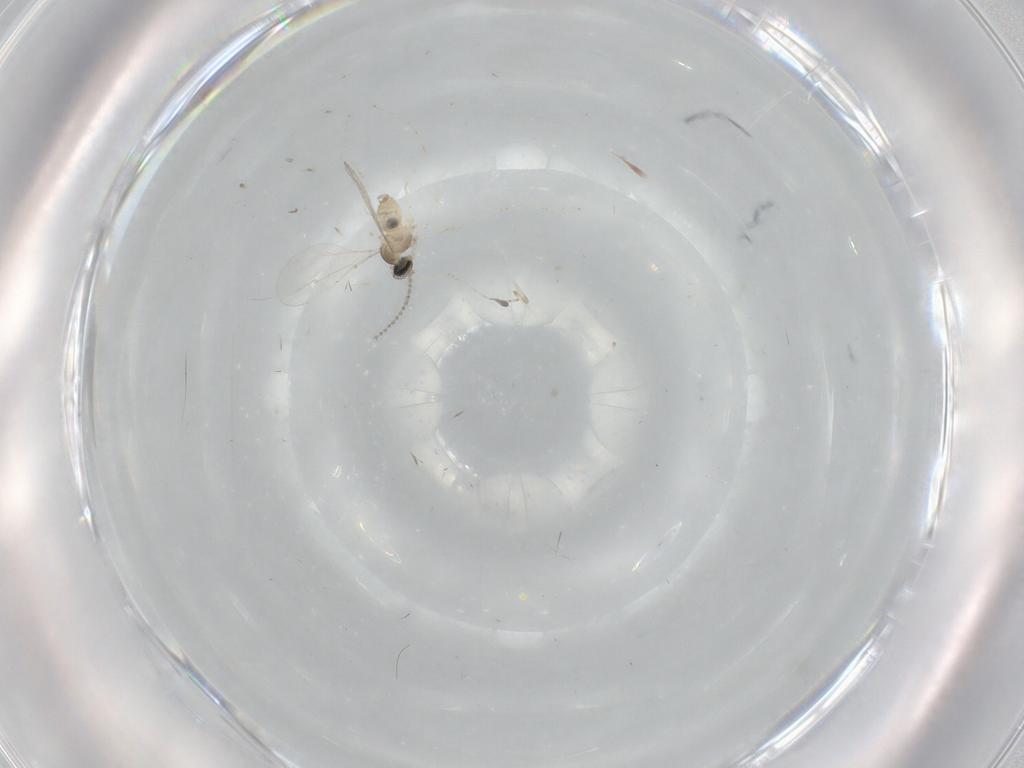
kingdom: Animalia
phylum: Arthropoda
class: Insecta
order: Diptera
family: Cecidomyiidae
